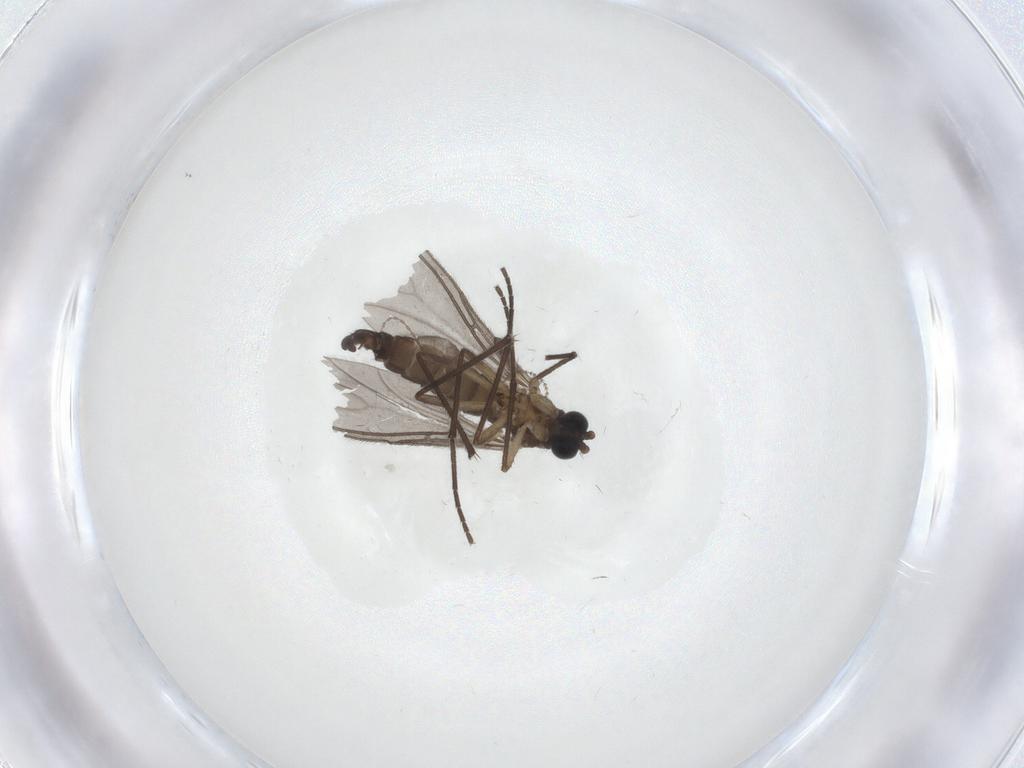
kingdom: Animalia
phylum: Arthropoda
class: Insecta
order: Diptera
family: Cecidomyiidae
